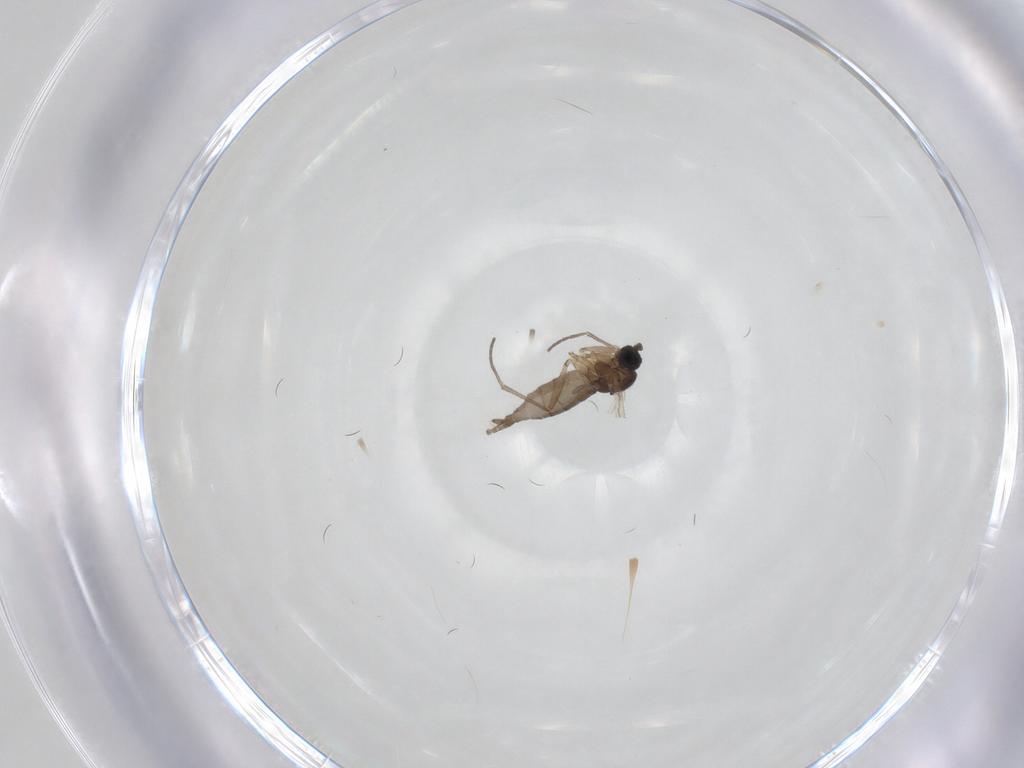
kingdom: Animalia
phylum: Arthropoda
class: Insecta
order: Diptera
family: Sciaridae
